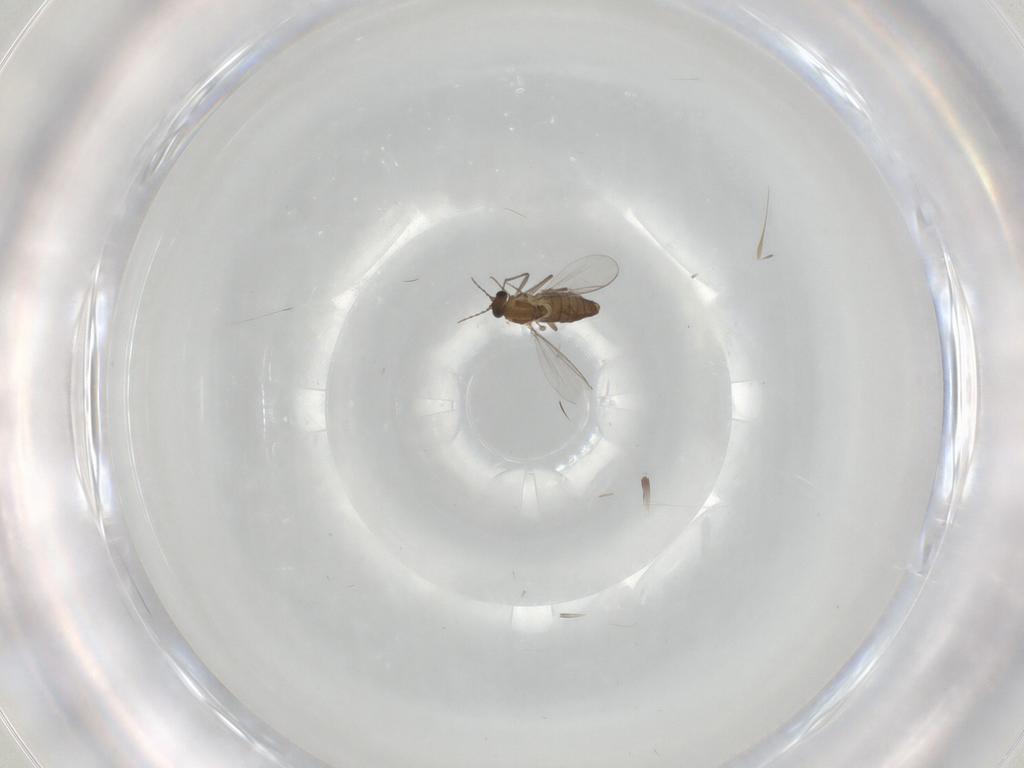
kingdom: Animalia
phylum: Arthropoda
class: Insecta
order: Diptera
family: Chironomidae
